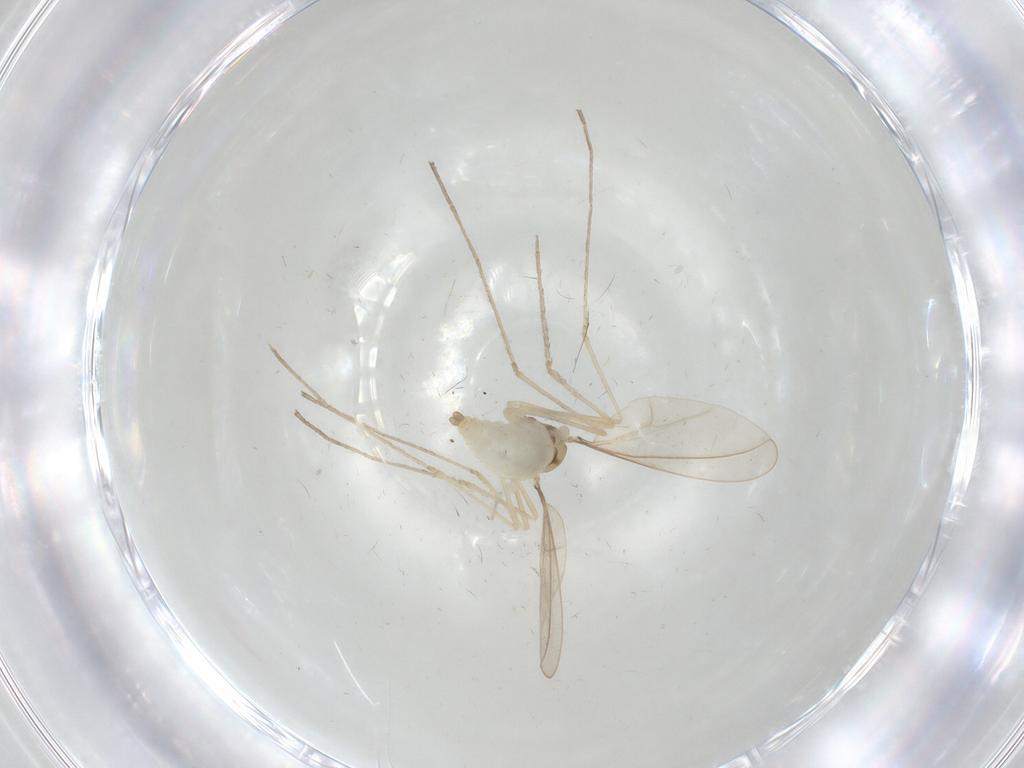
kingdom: Animalia
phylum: Arthropoda
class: Insecta
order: Diptera
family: Cecidomyiidae
